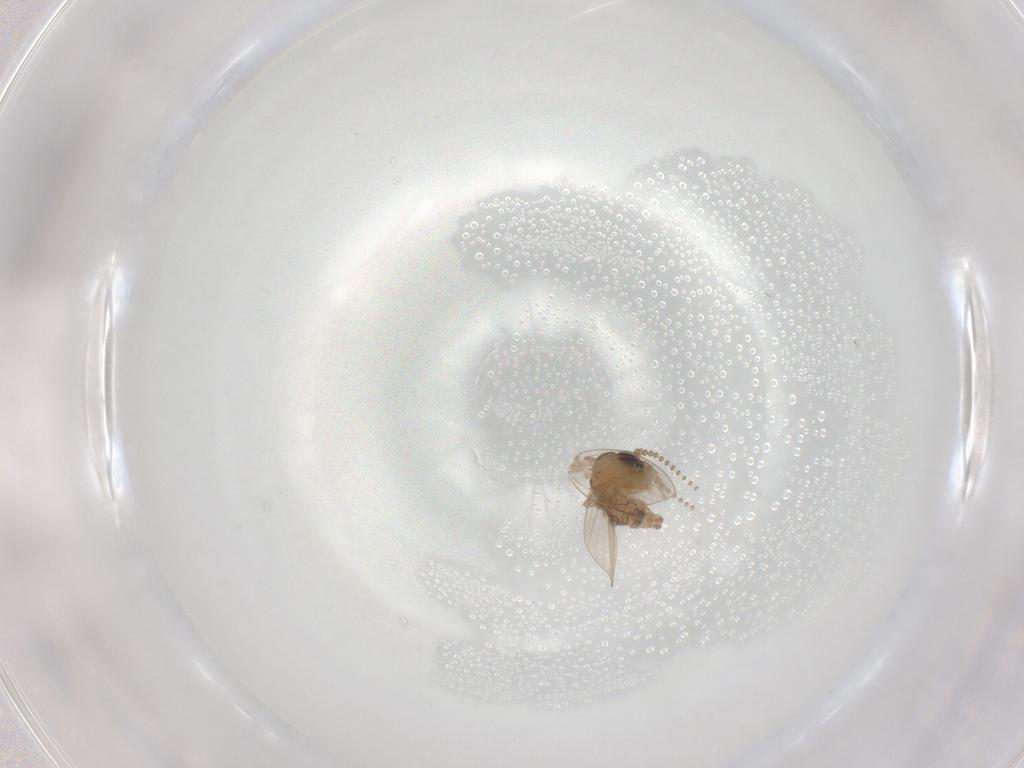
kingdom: Animalia
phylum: Arthropoda
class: Insecta
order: Diptera
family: Psychodidae
